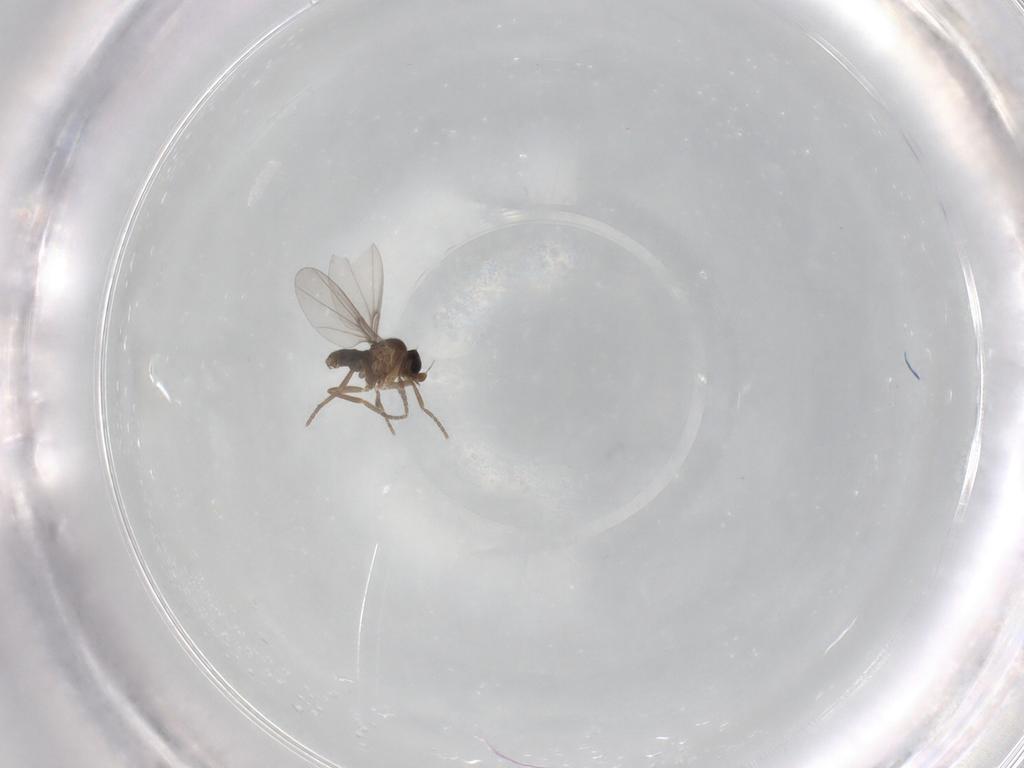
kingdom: Animalia
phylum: Arthropoda
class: Insecta
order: Diptera
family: Phoridae
